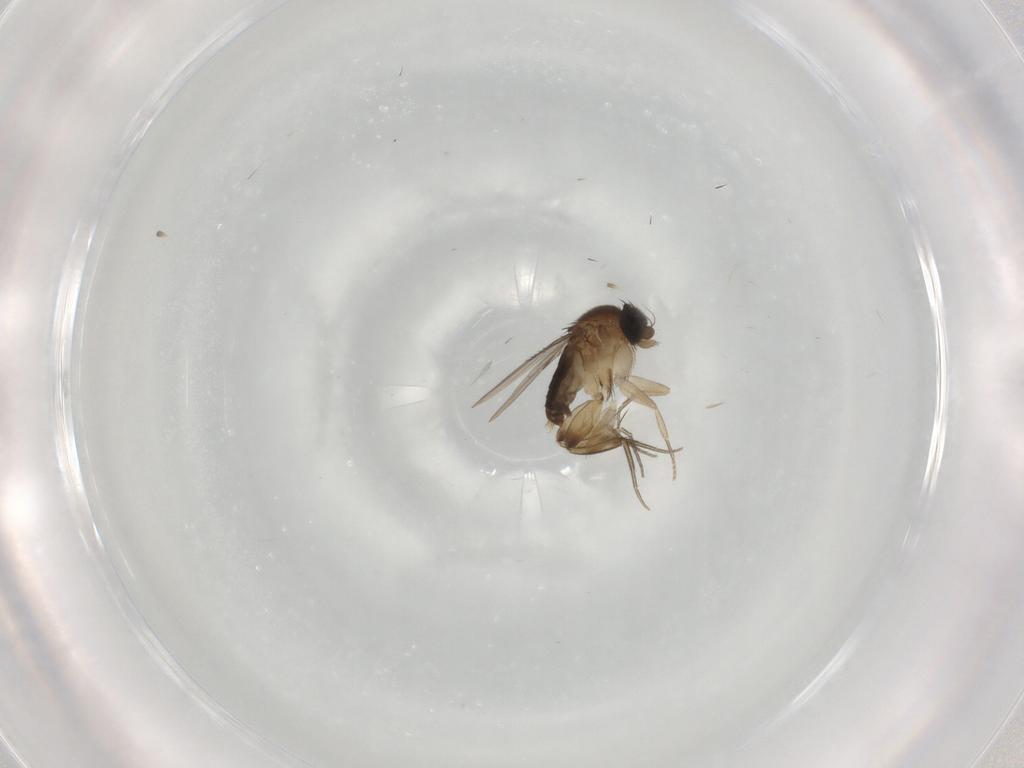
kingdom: Animalia
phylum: Arthropoda
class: Insecta
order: Diptera
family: Phoridae
